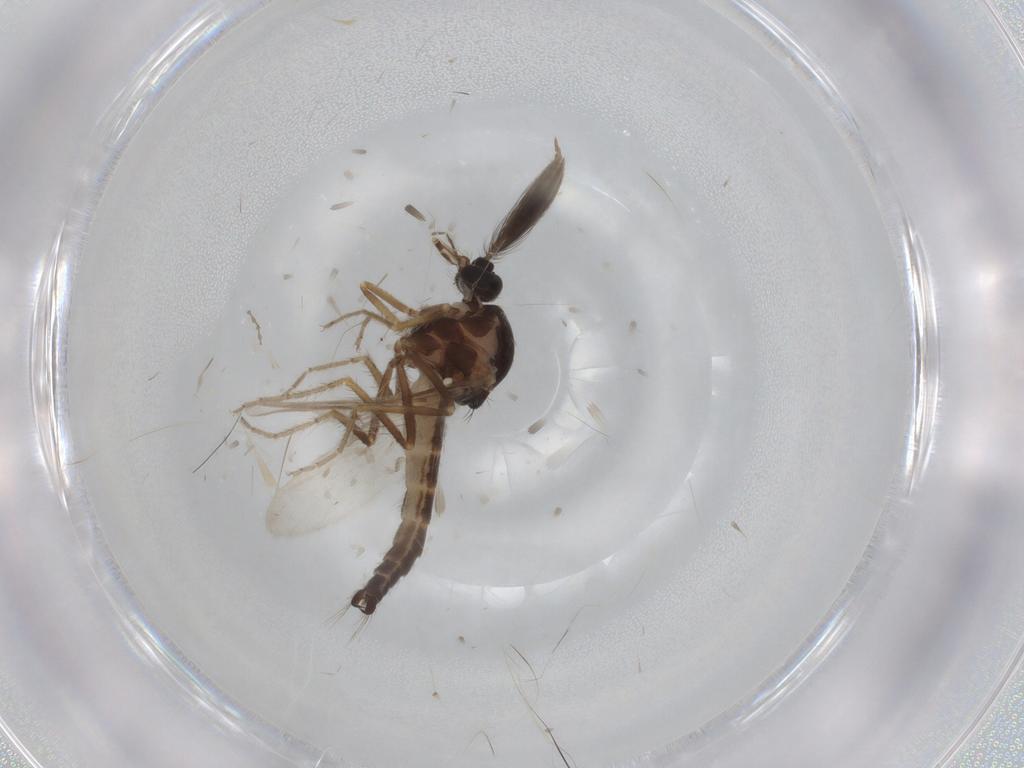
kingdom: Animalia
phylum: Arthropoda
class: Insecta
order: Diptera
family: Ceratopogonidae
